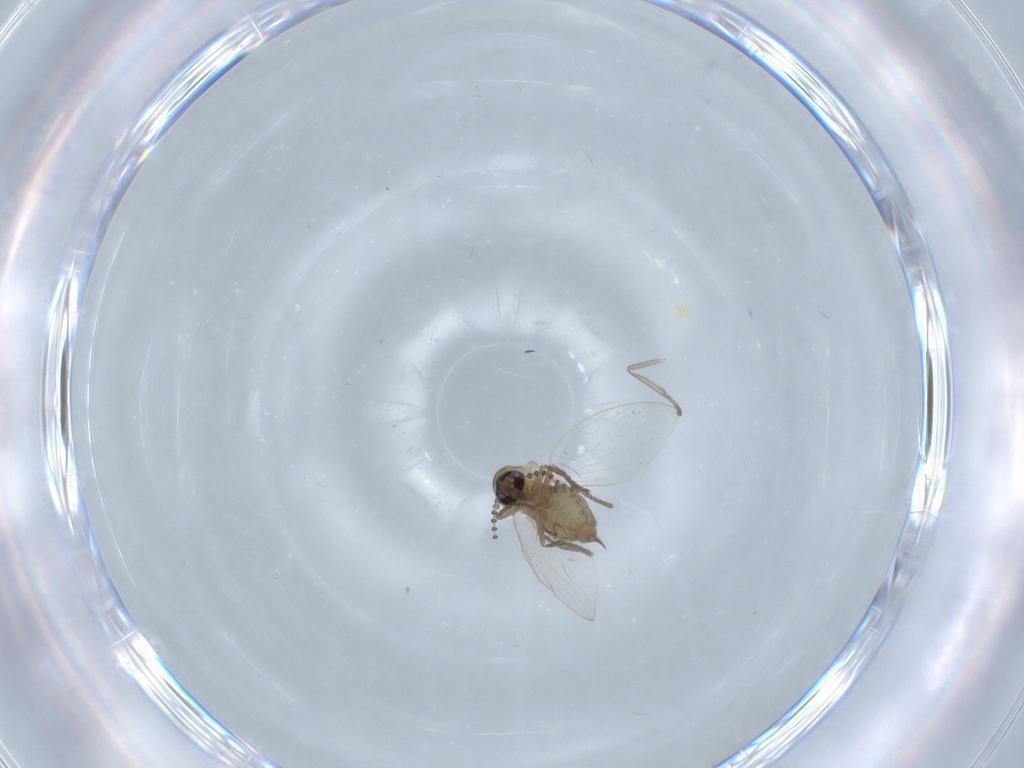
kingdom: Animalia
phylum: Arthropoda
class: Insecta
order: Diptera
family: Psychodidae
